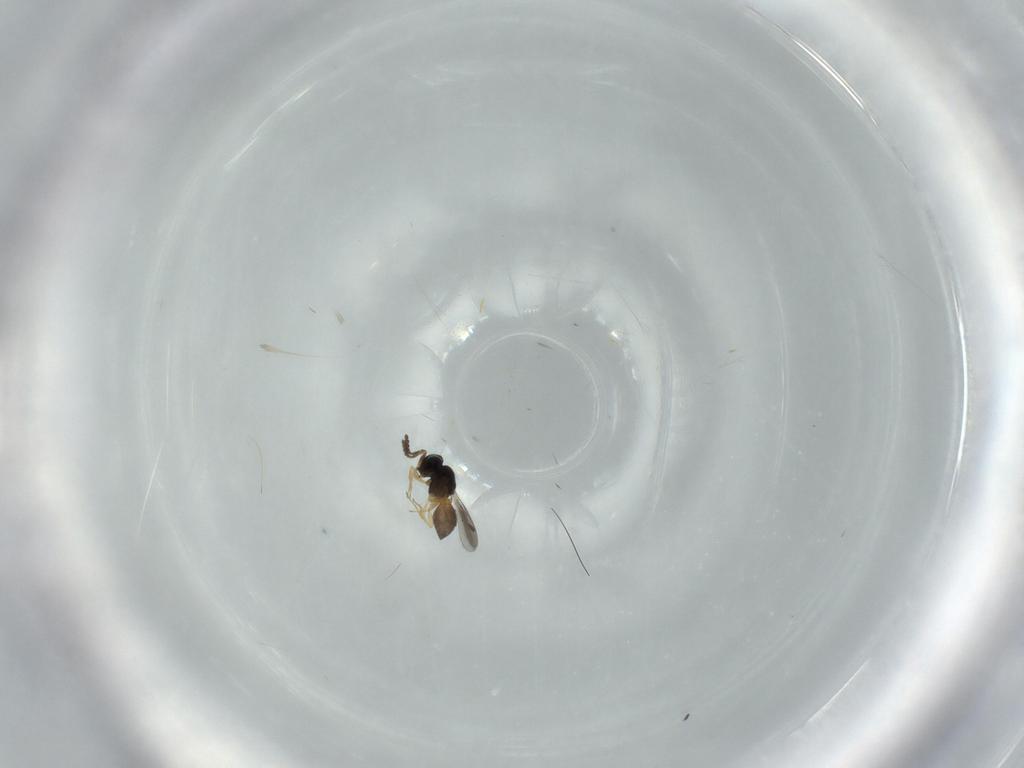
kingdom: Animalia
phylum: Arthropoda
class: Insecta
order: Hymenoptera
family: Scelionidae
